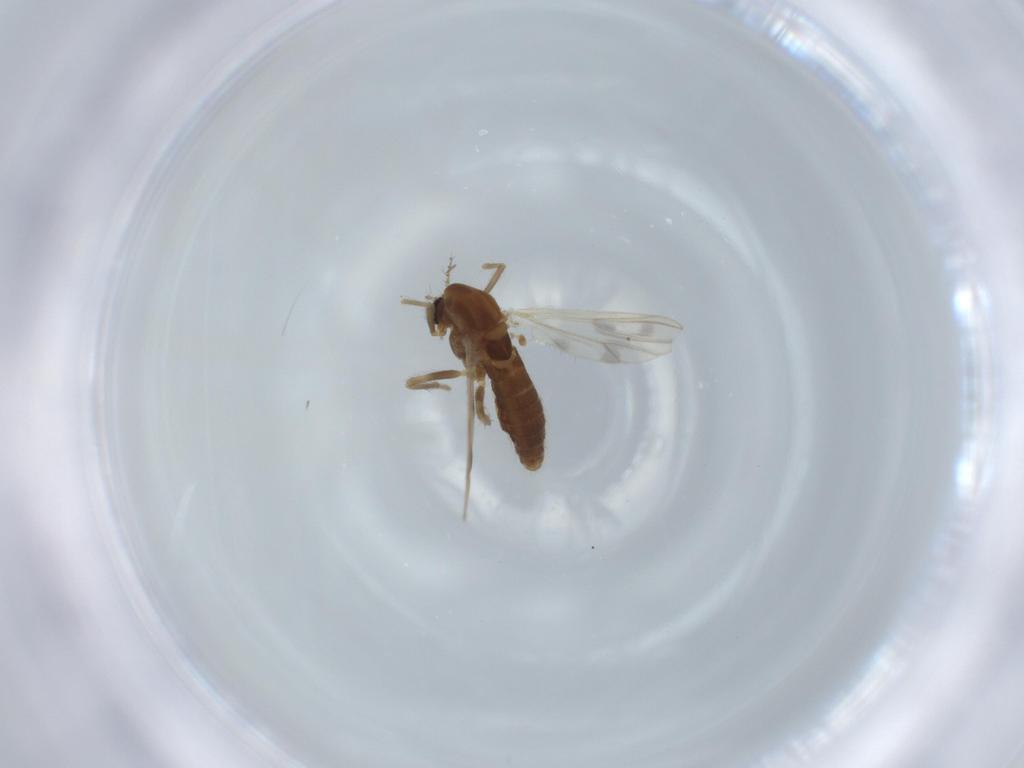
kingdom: Animalia
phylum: Arthropoda
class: Insecta
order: Diptera
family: Chironomidae
